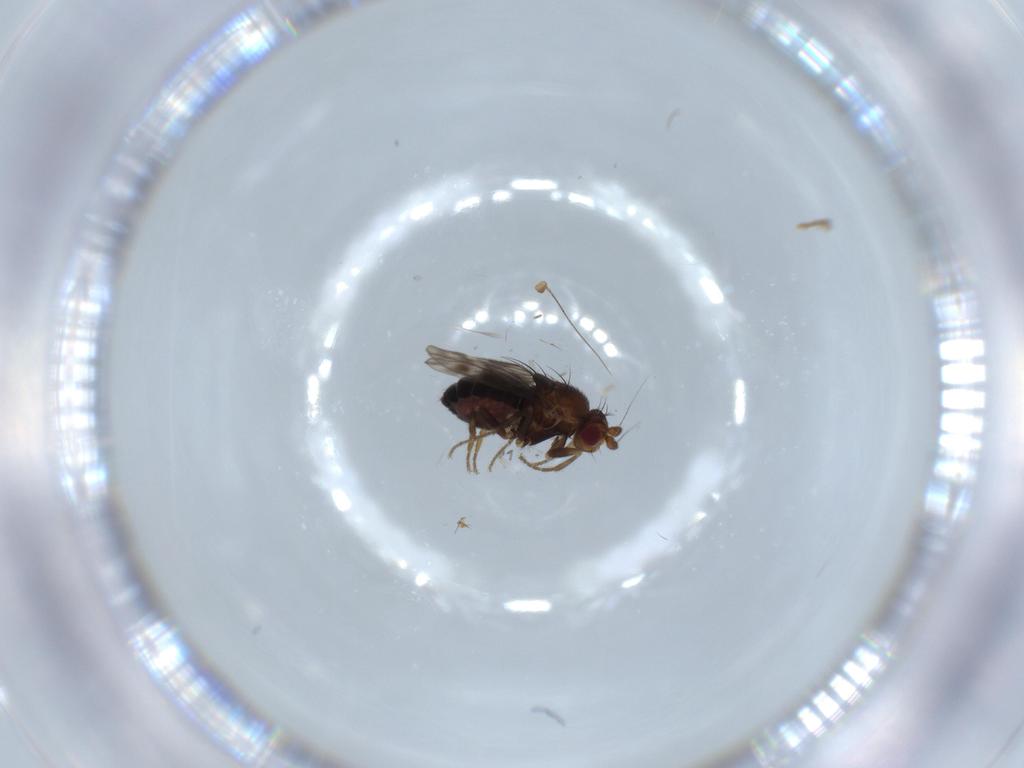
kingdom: Animalia
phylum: Arthropoda
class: Insecta
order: Diptera
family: Sphaeroceridae
